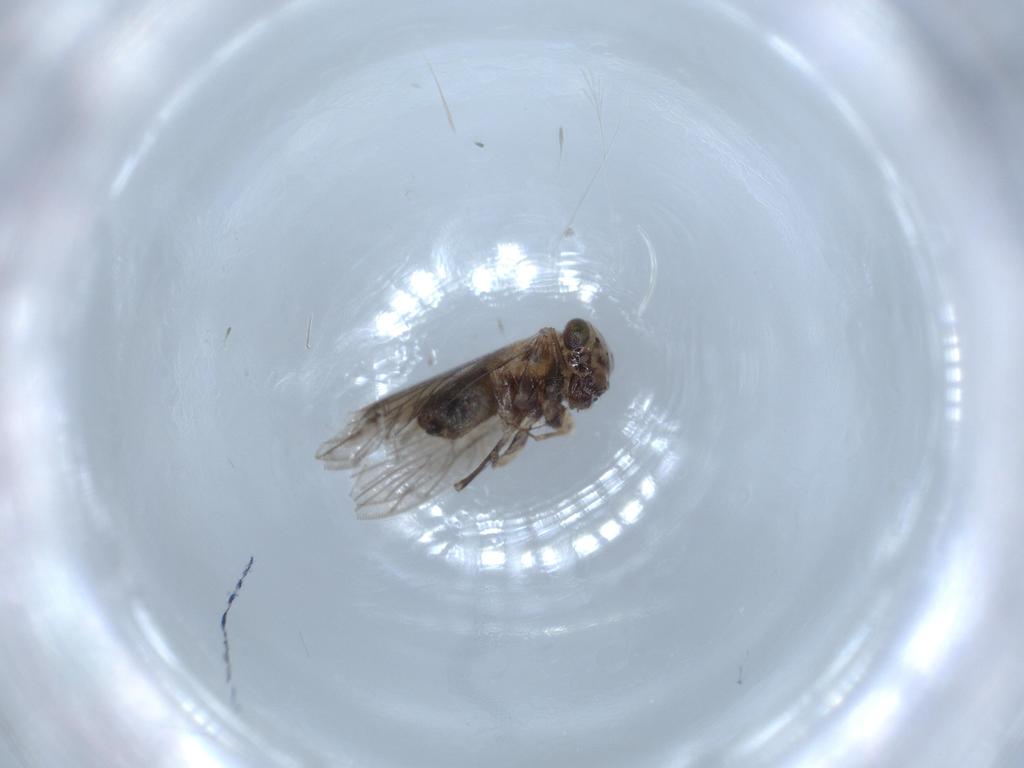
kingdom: Animalia
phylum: Arthropoda
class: Insecta
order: Psocodea
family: Lepidopsocidae
